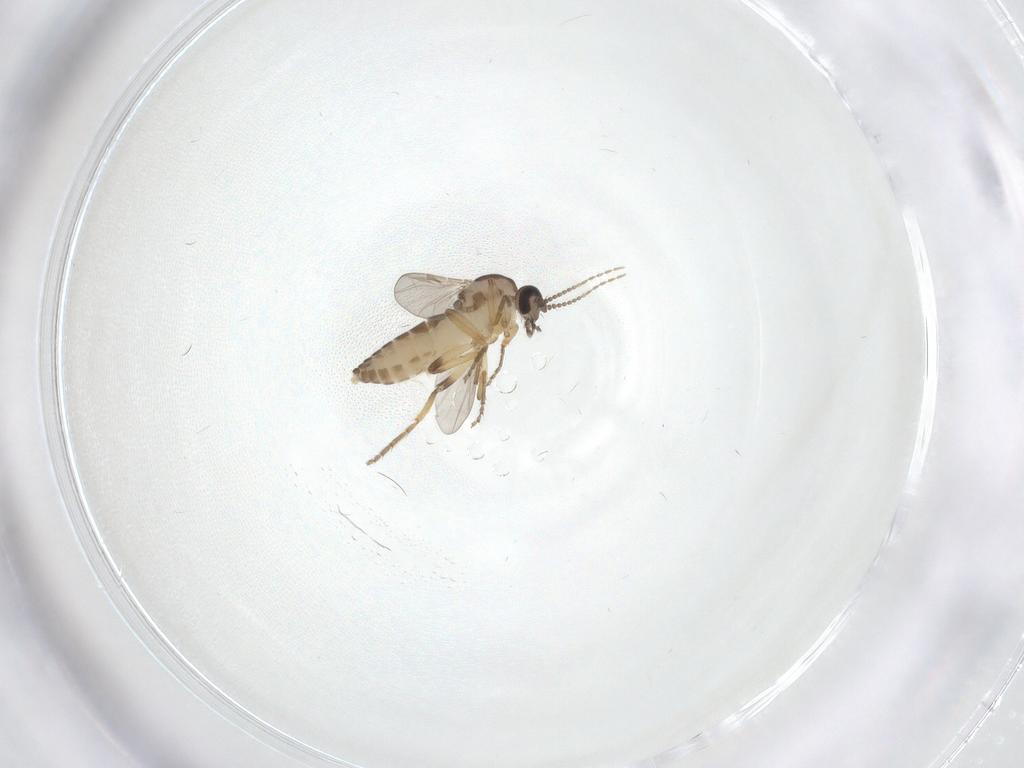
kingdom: Animalia
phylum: Arthropoda
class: Insecta
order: Diptera
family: Ceratopogonidae
